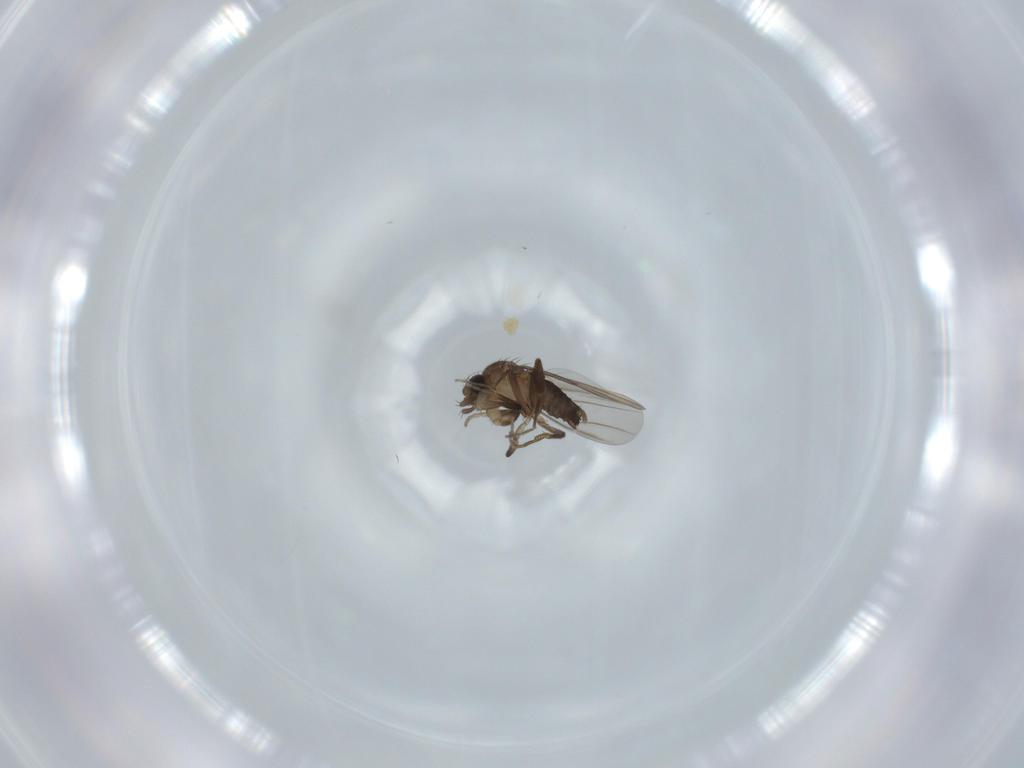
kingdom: Animalia
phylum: Arthropoda
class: Insecta
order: Diptera
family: Phoridae
